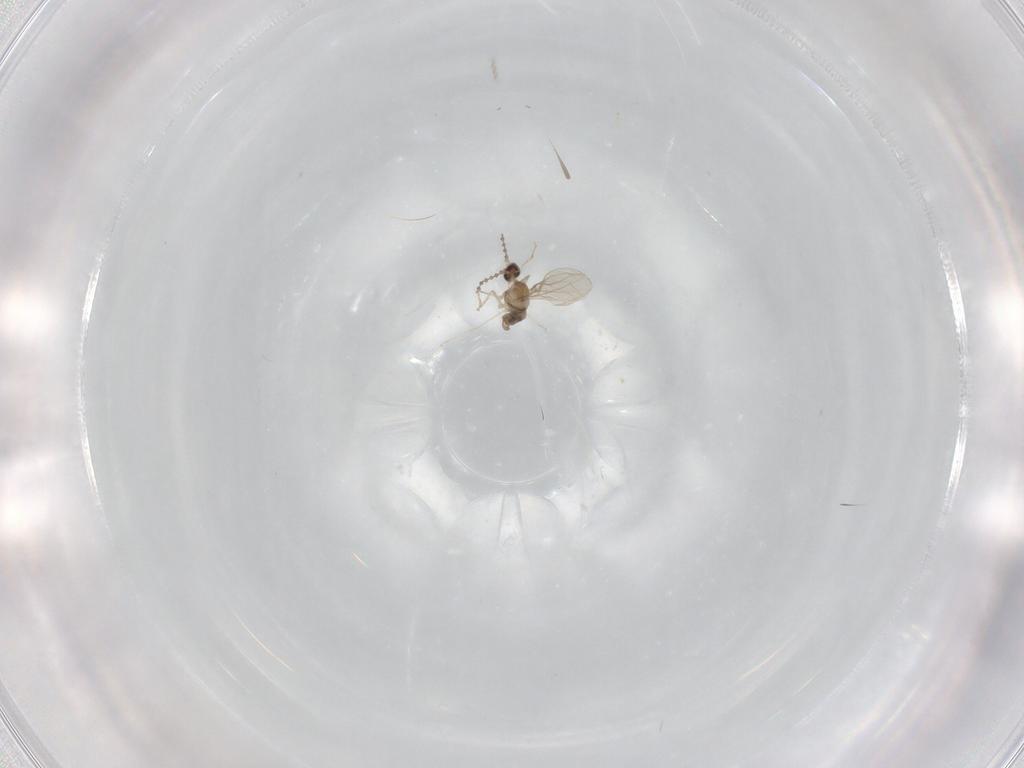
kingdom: Animalia
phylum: Arthropoda
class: Insecta
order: Diptera
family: Cecidomyiidae
